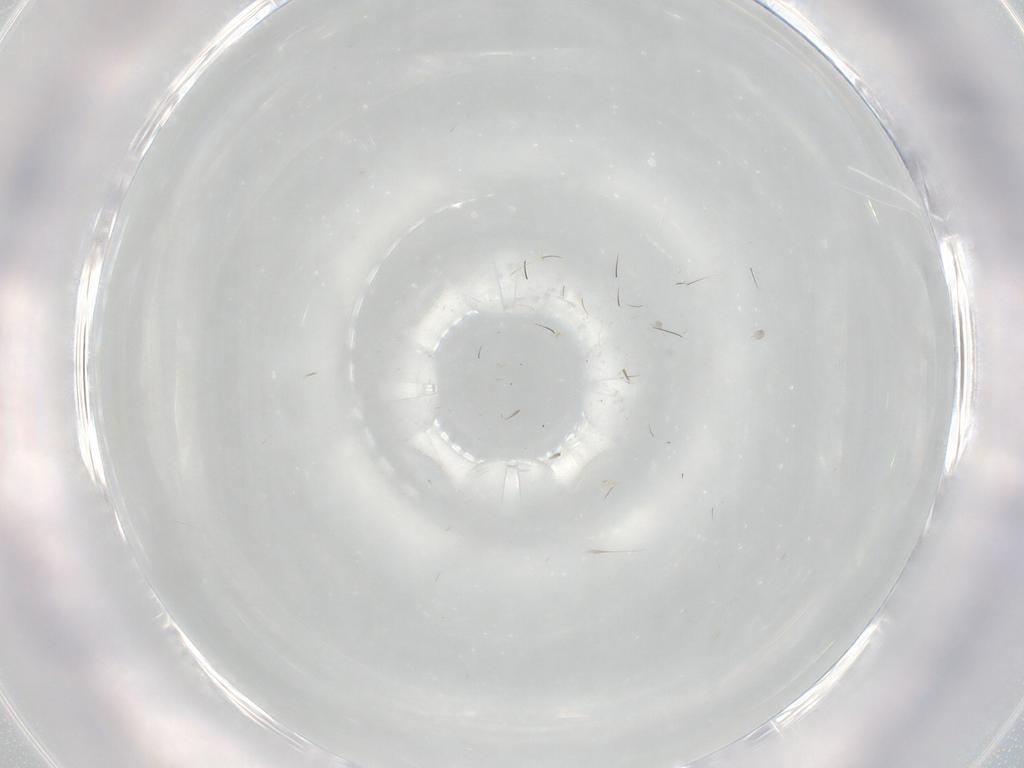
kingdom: Animalia
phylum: Arthropoda
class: Insecta
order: Diptera
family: Cecidomyiidae
